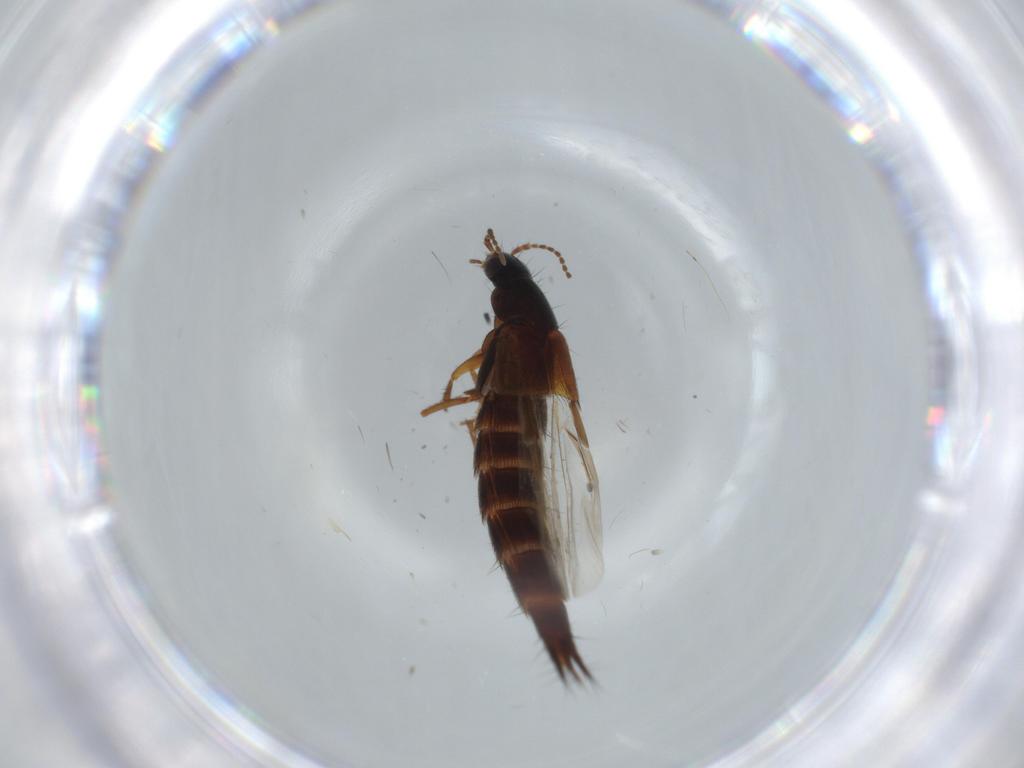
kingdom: Animalia
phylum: Arthropoda
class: Insecta
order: Coleoptera
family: Staphylinidae
